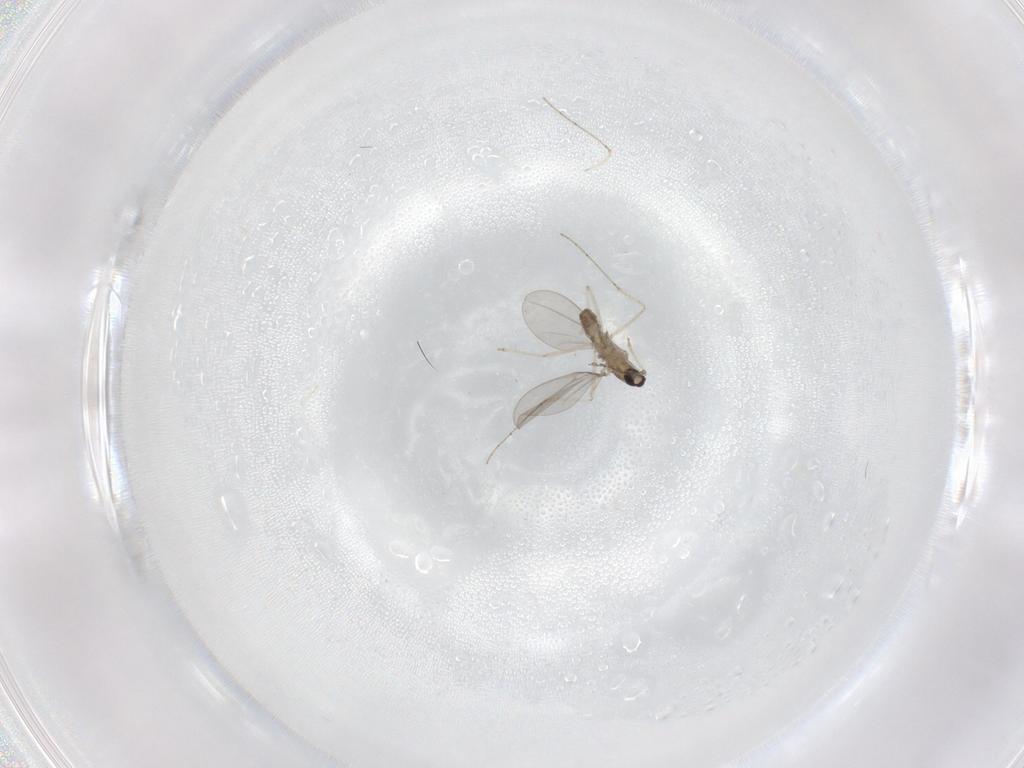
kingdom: Animalia
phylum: Arthropoda
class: Insecta
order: Diptera
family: Cecidomyiidae
